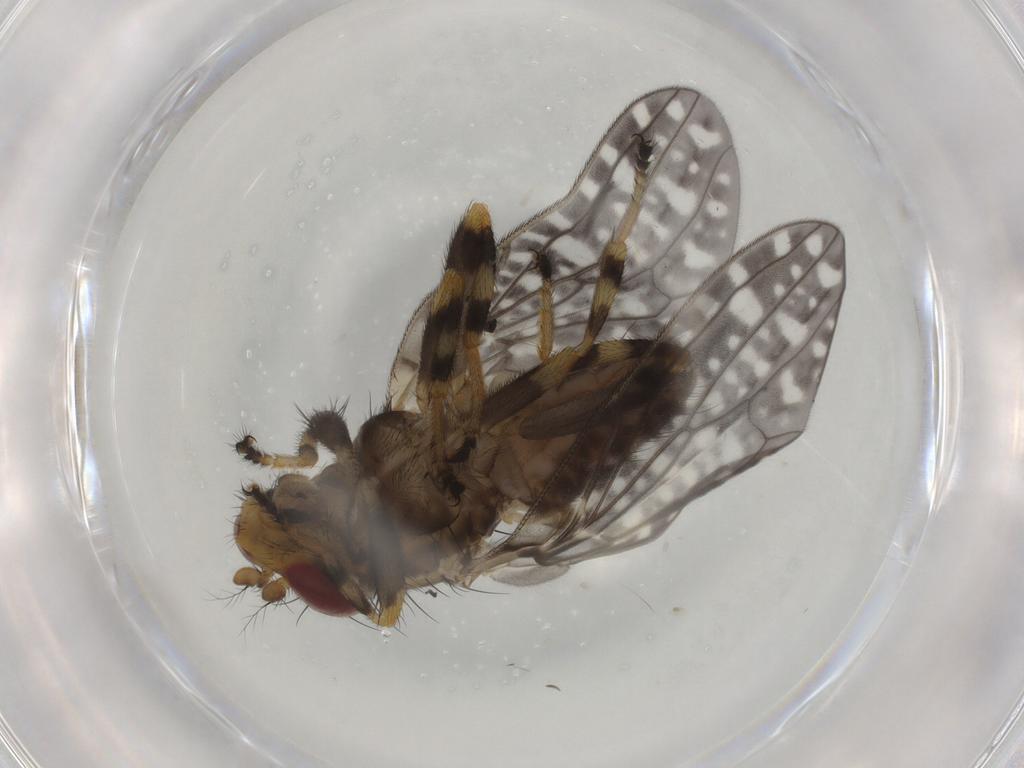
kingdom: Animalia
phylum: Arthropoda
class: Insecta
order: Diptera
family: Periscelididae
